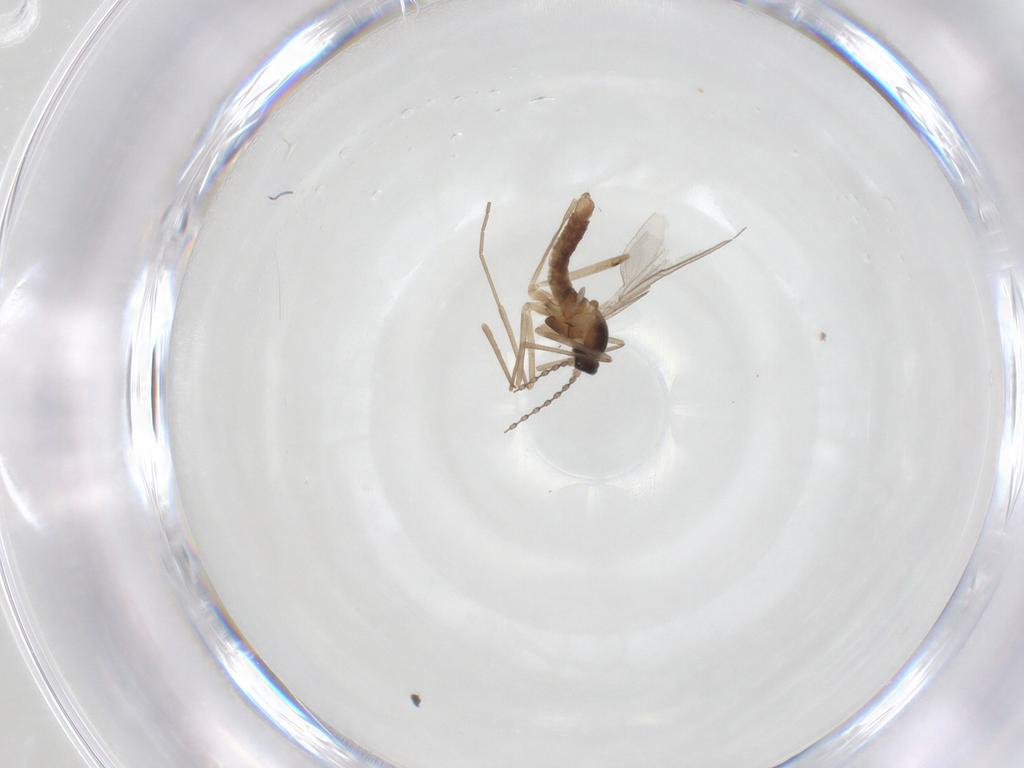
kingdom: Animalia
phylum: Arthropoda
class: Insecta
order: Diptera
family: Cecidomyiidae
